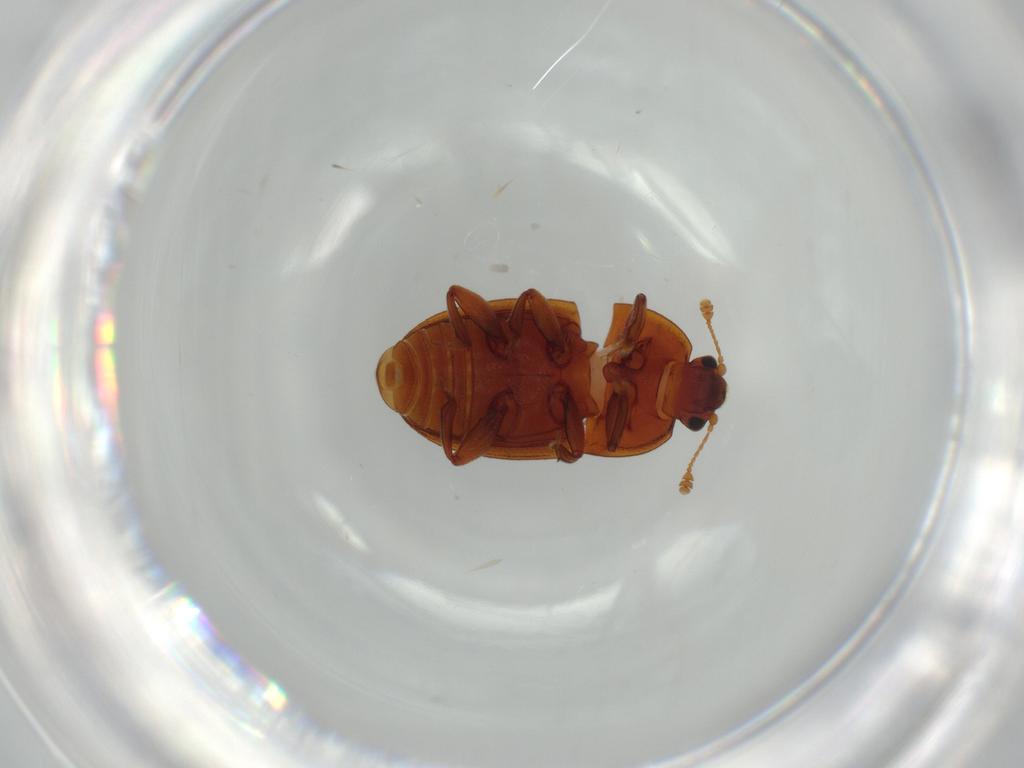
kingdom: Animalia
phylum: Arthropoda
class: Insecta
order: Coleoptera
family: Nitidulidae
